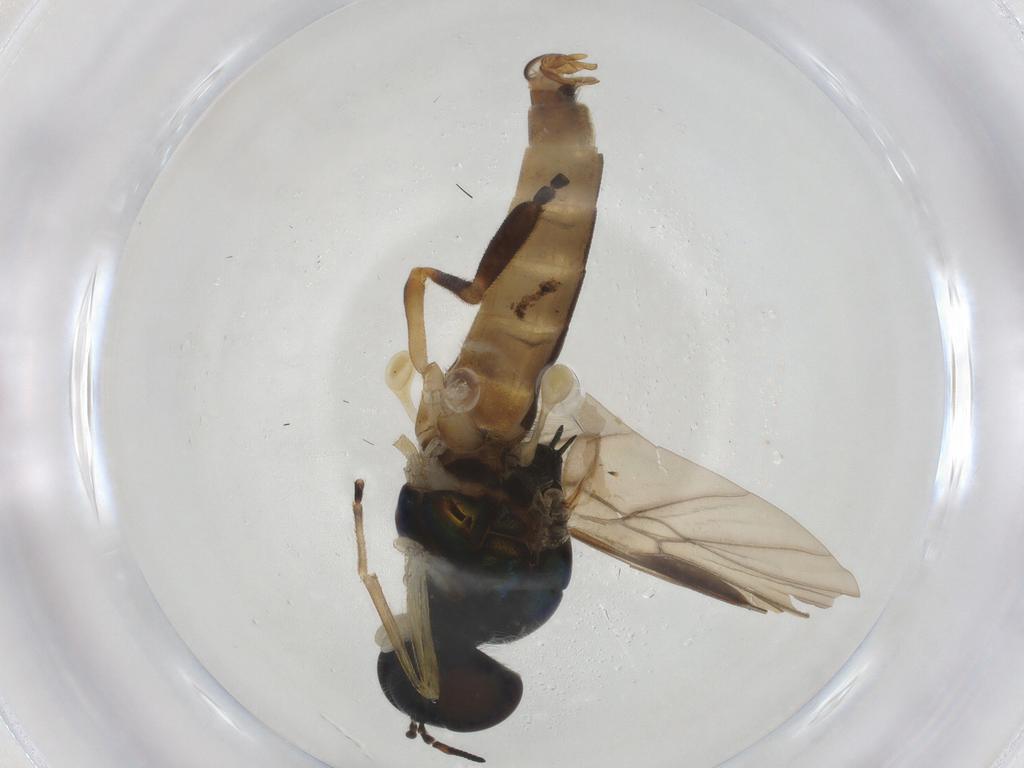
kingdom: Animalia
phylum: Arthropoda
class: Insecta
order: Diptera
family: Stratiomyidae
